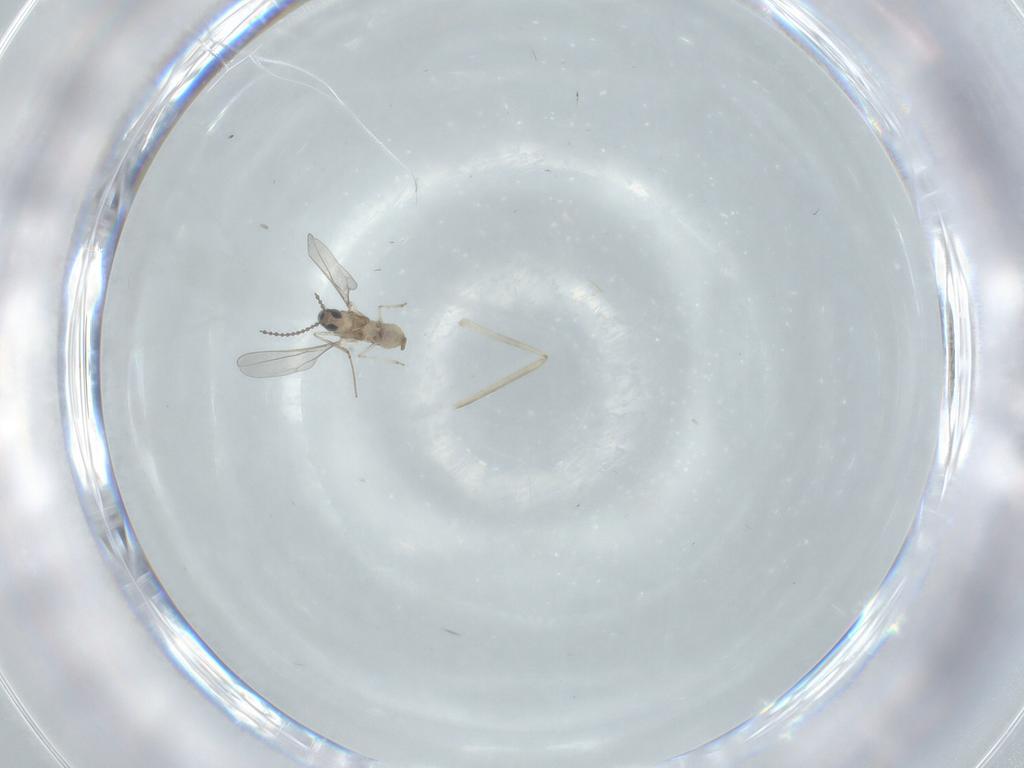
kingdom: Animalia
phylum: Arthropoda
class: Insecta
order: Diptera
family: Cecidomyiidae
